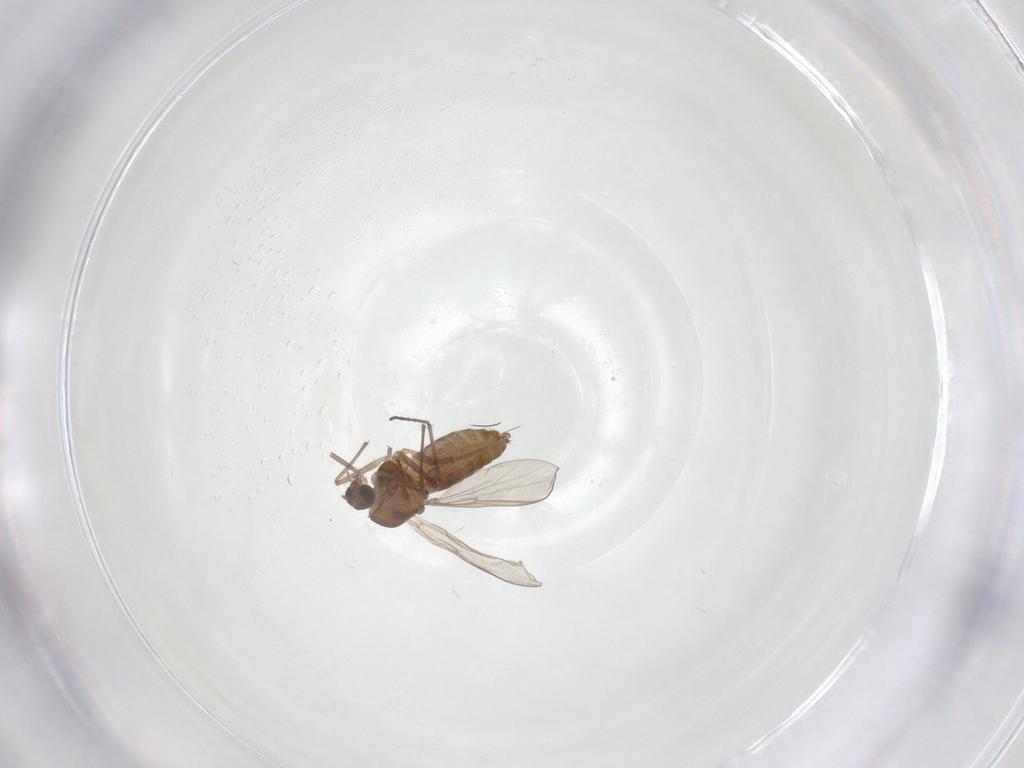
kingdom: Animalia
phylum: Arthropoda
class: Insecta
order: Diptera
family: Chironomidae
